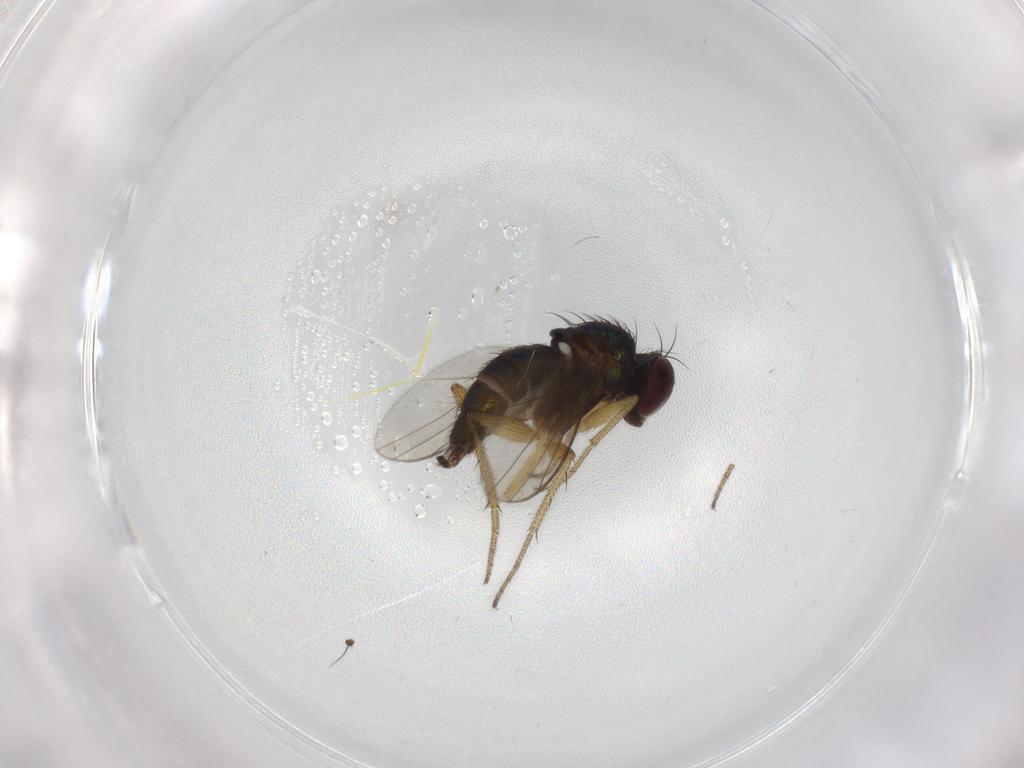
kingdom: Animalia
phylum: Arthropoda
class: Insecta
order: Diptera
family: Dolichopodidae
